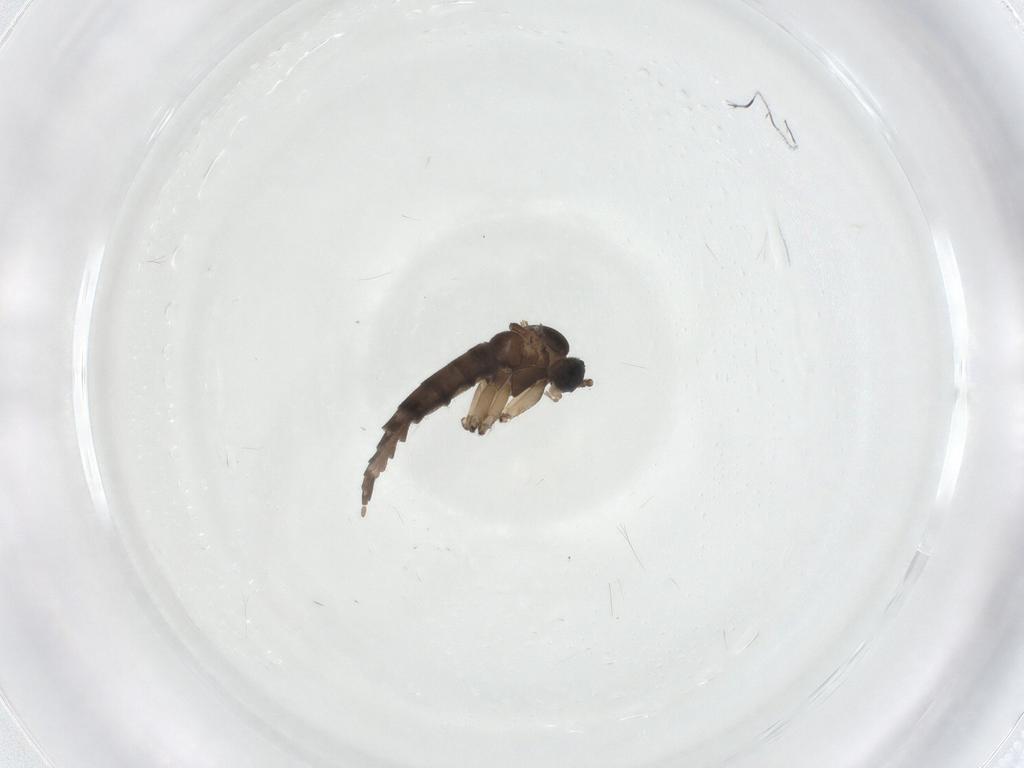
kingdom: Animalia
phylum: Arthropoda
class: Insecta
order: Diptera
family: Sciaridae
